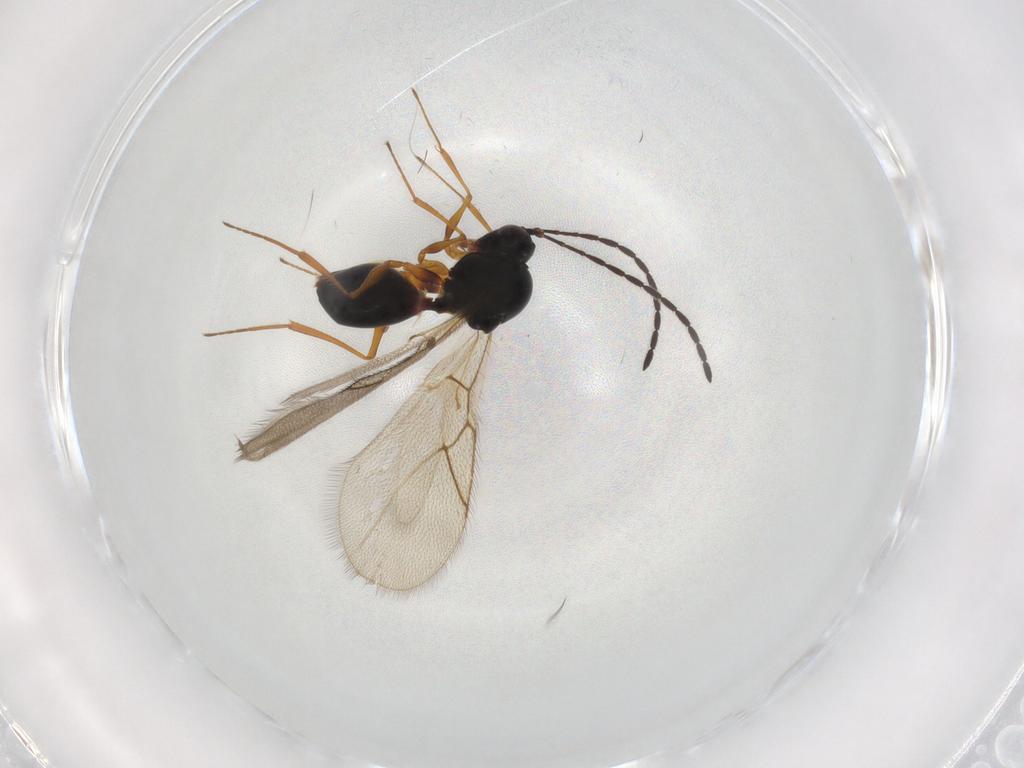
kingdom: Animalia
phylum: Arthropoda
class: Insecta
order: Hymenoptera
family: Figitidae
